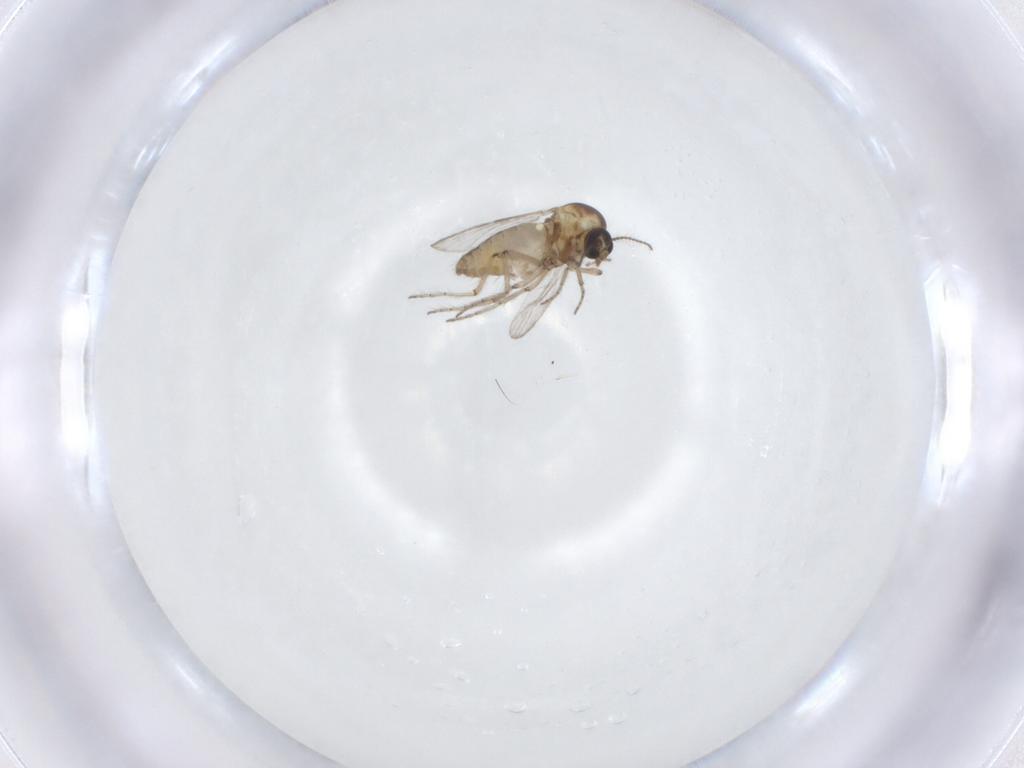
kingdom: Animalia
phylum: Arthropoda
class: Insecta
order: Diptera
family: Ceratopogonidae
